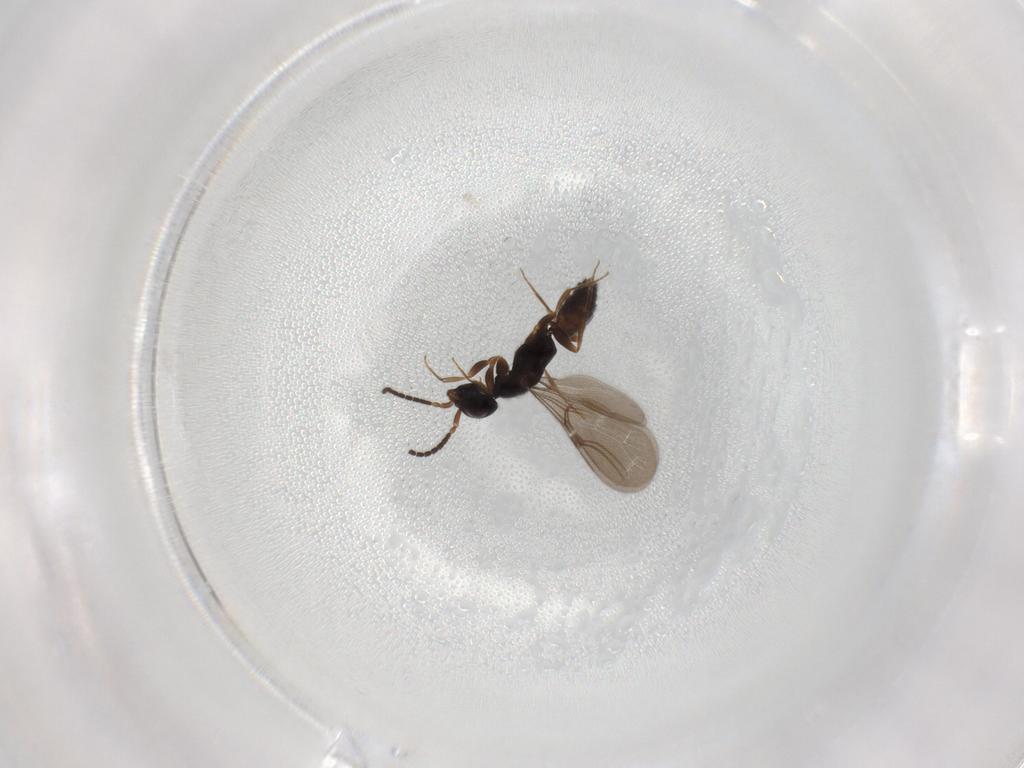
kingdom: Animalia
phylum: Arthropoda
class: Insecta
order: Hymenoptera
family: Bethylidae
